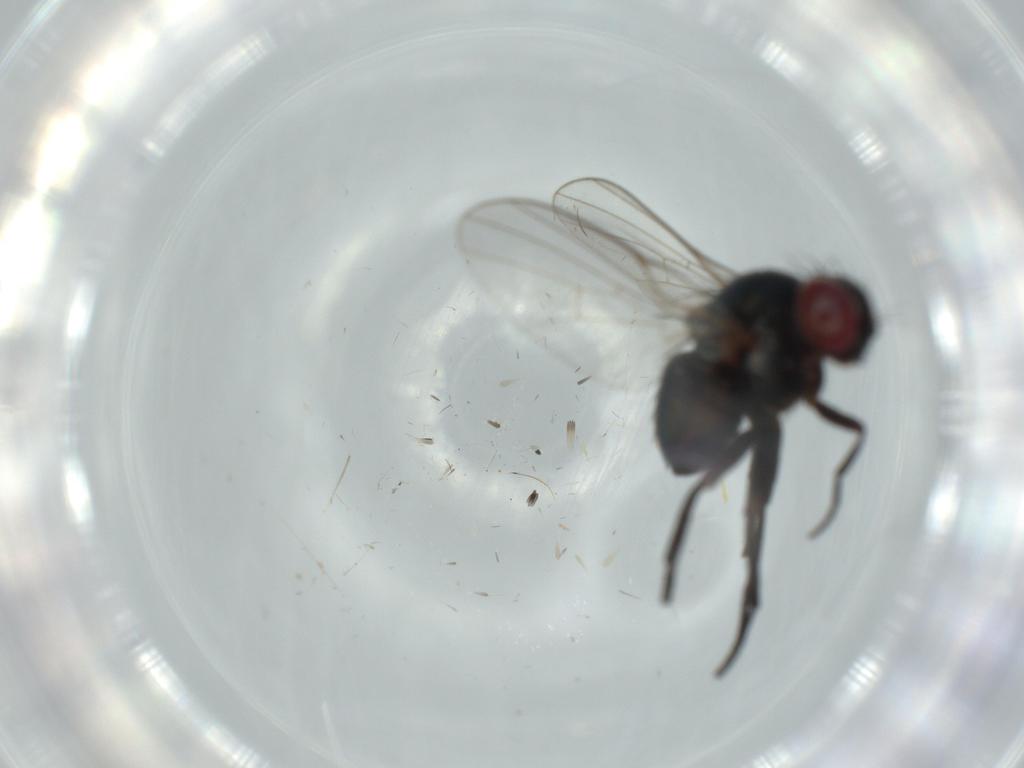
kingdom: Animalia
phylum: Arthropoda
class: Insecta
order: Diptera
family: Agromyzidae
